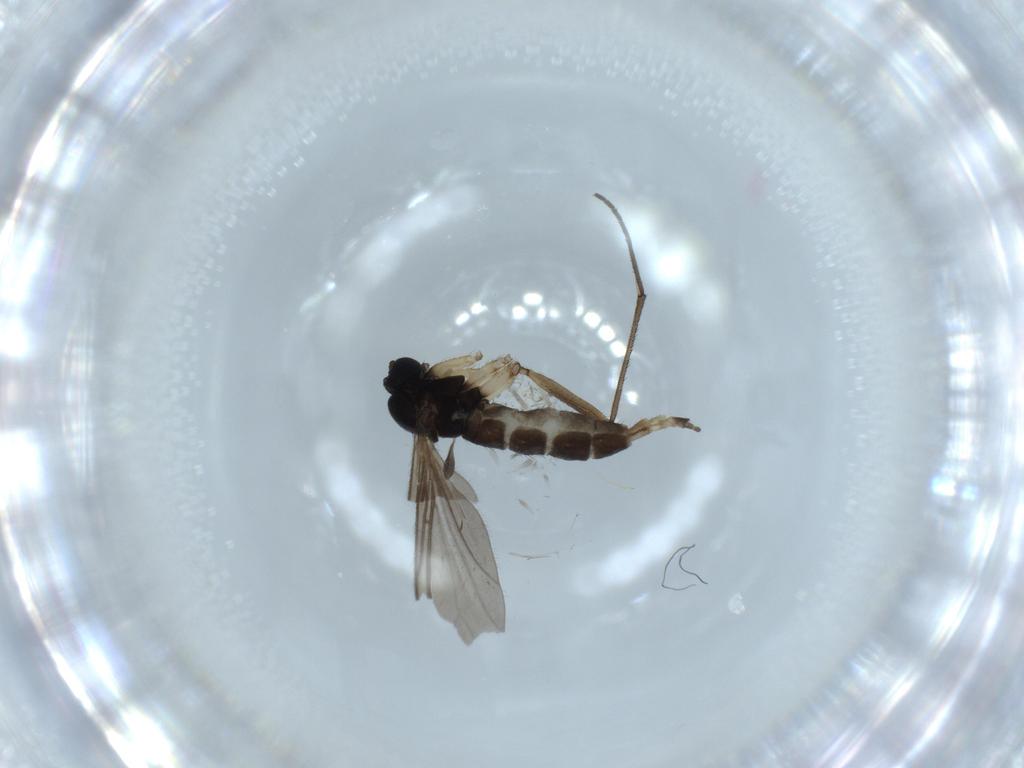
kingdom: Animalia
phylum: Arthropoda
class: Insecta
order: Diptera
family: Sciaridae
